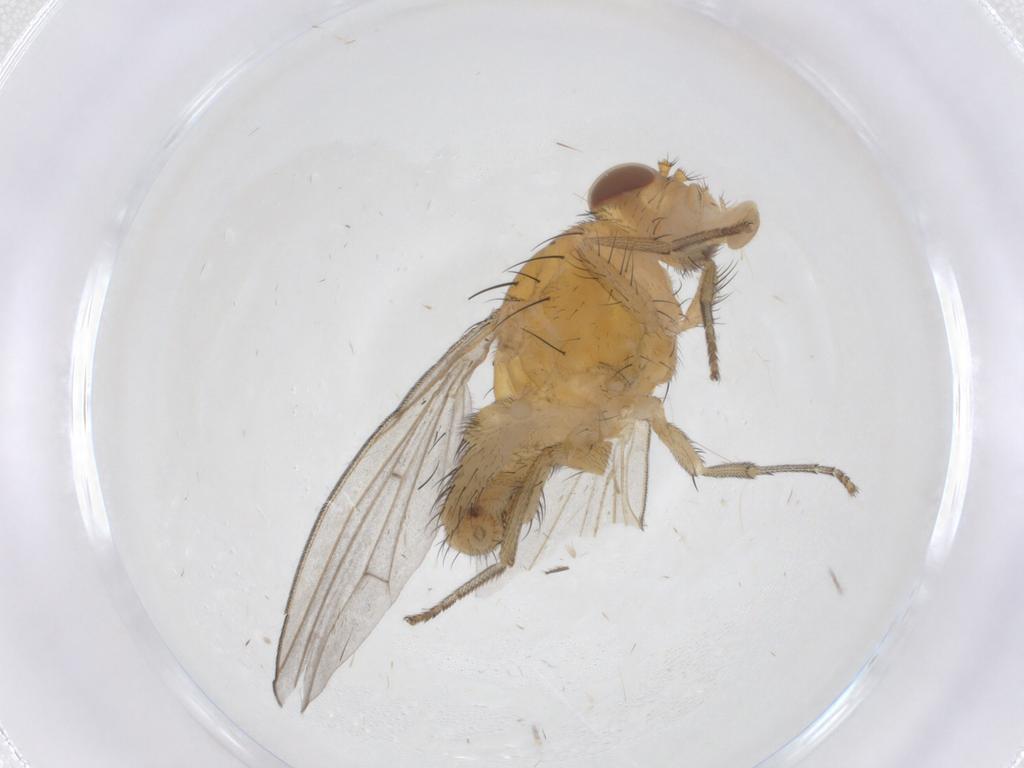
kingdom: Animalia
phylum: Arthropoda
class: Insecta
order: Diptera
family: Lauxaniidae
